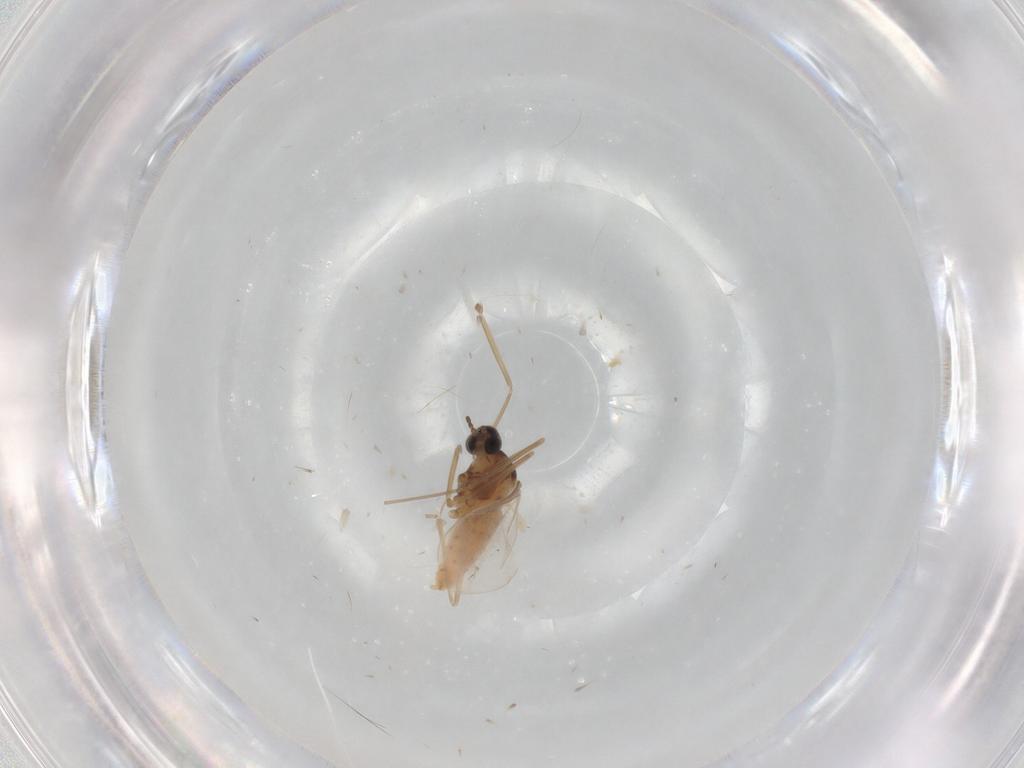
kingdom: Animalia
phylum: Arthropoda
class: Insecta
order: Diptera
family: Cecidomyiidae
